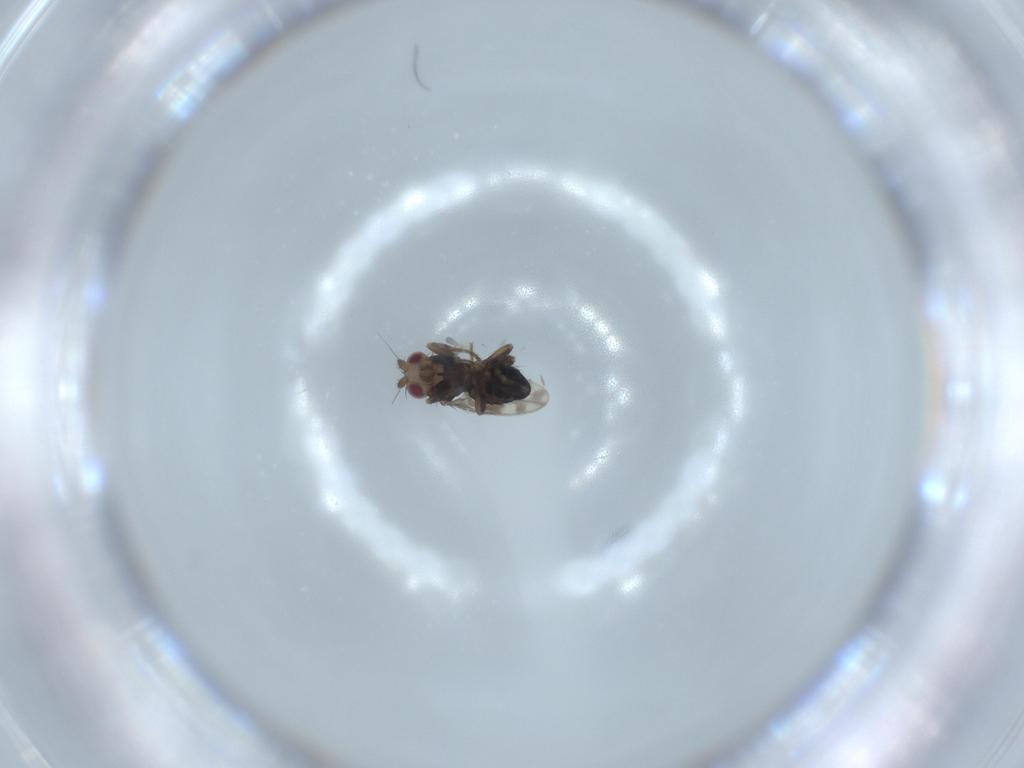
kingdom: Animalia
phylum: Arthropoda
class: Insecta
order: Diptera
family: Sphaeroceridae
